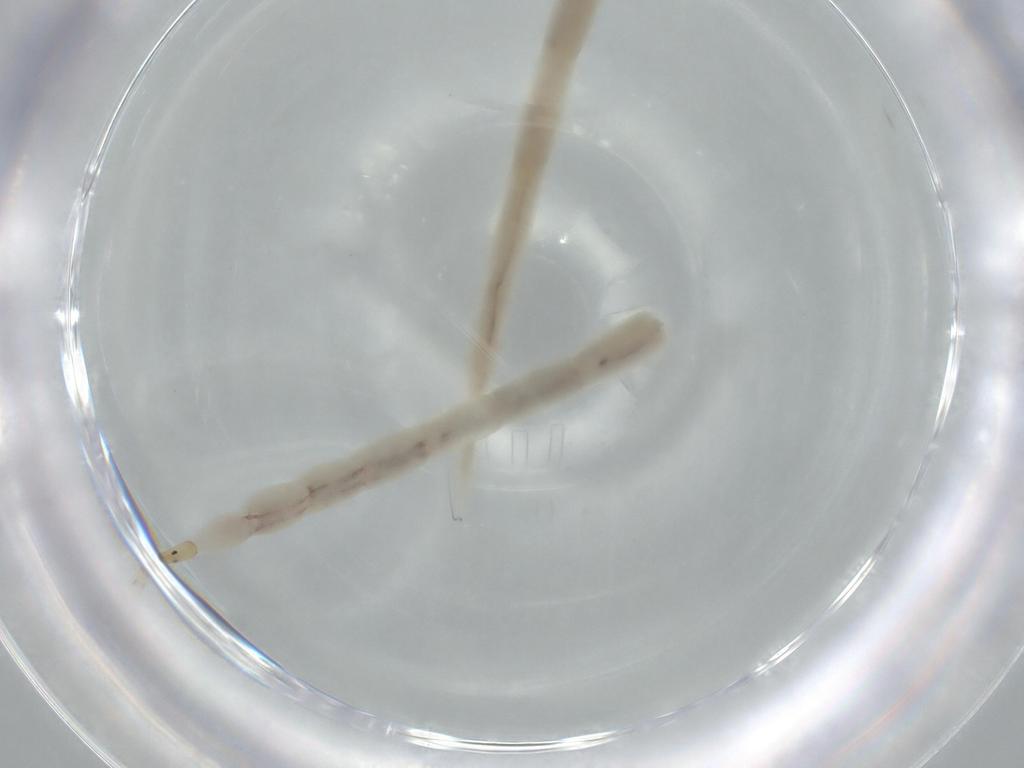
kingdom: Animalia
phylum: Arthropoda
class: Insecta
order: Diptera
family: Ceratopogonidae
